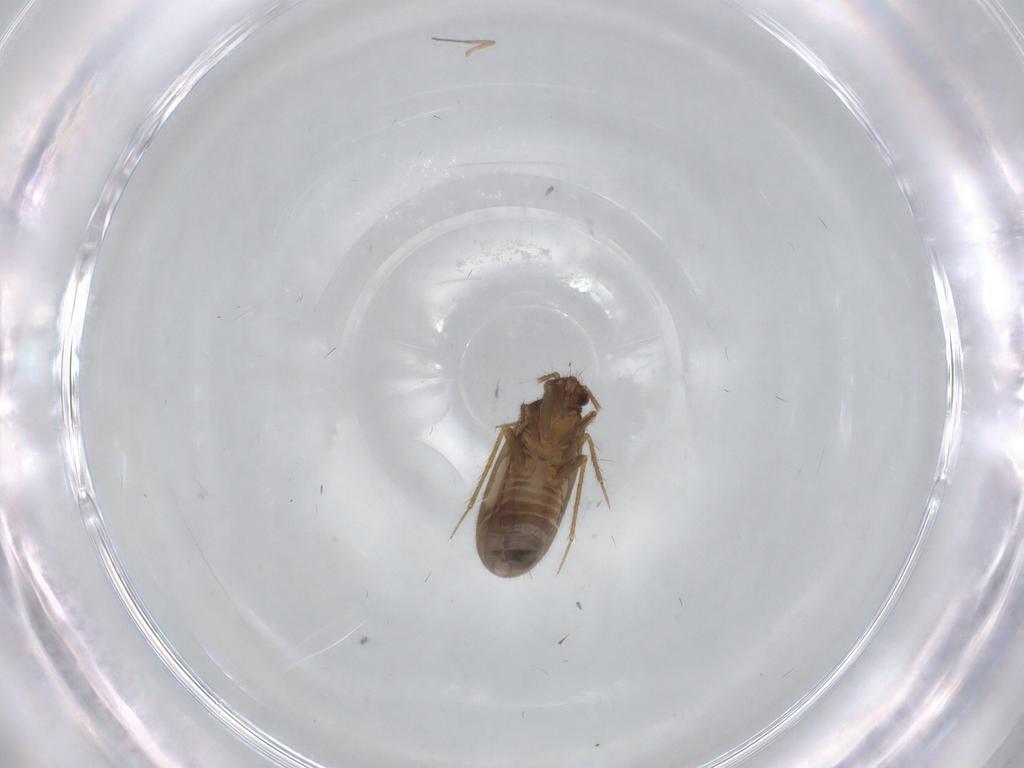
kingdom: Animalia
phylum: Arthropoda
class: Insecta
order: Hemiptera
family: Ceratocombidae
